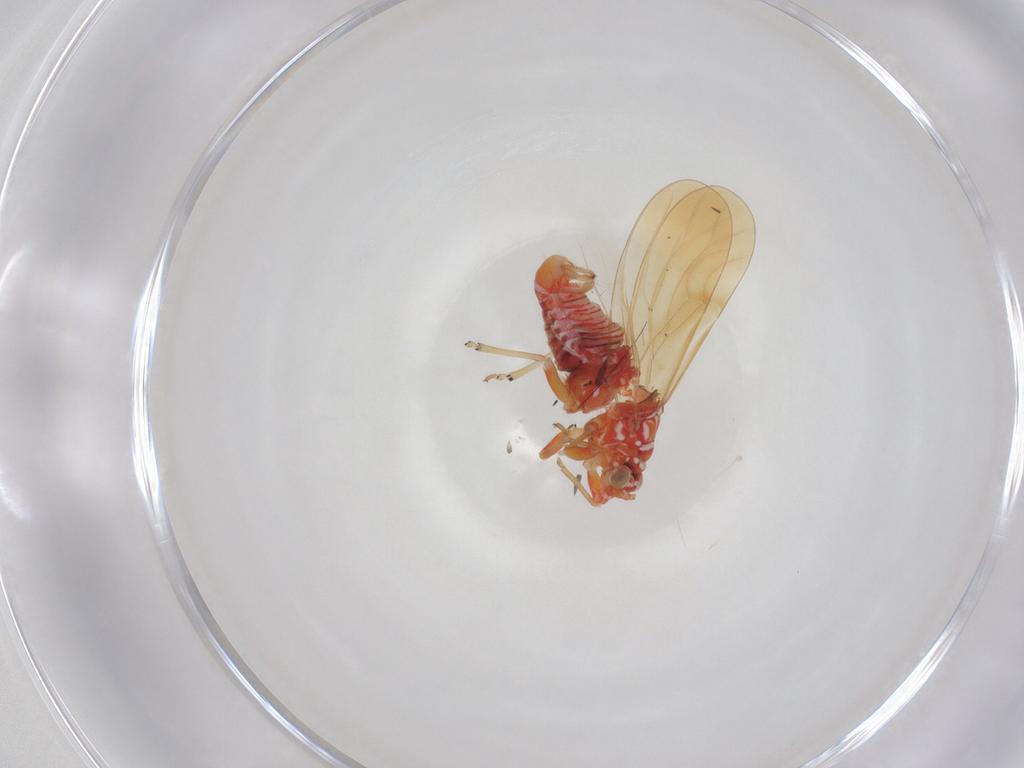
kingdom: Animalia
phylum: Arthropoda
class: Insecta
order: Hemiptera
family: Psyllidae
